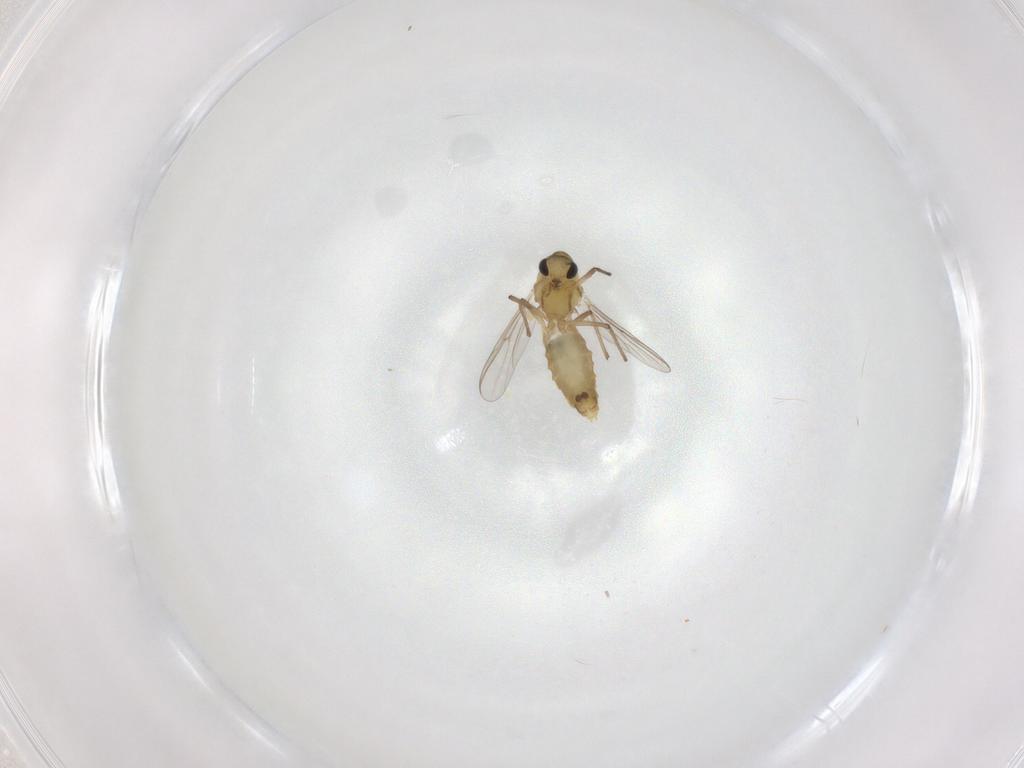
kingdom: Animalia
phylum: Arthropoda
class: Insecta
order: Diptera
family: Chironomidae
